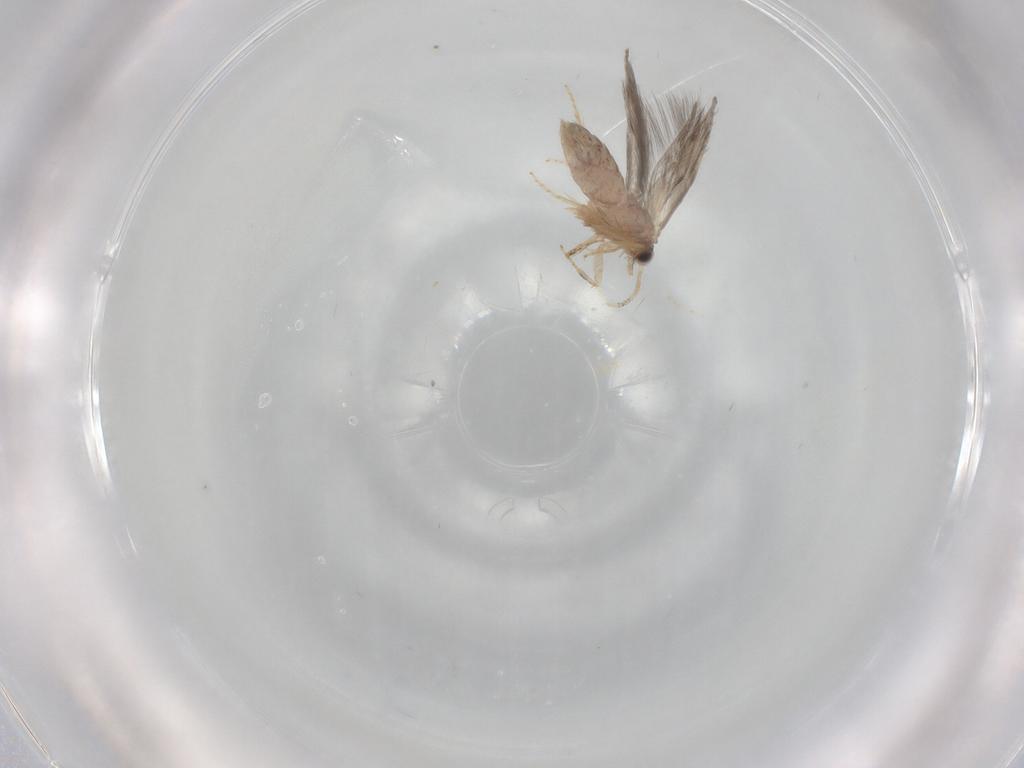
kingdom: Animalia
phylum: Arthropoda
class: Insecta
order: Trichoptera
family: Hydroptilidae
